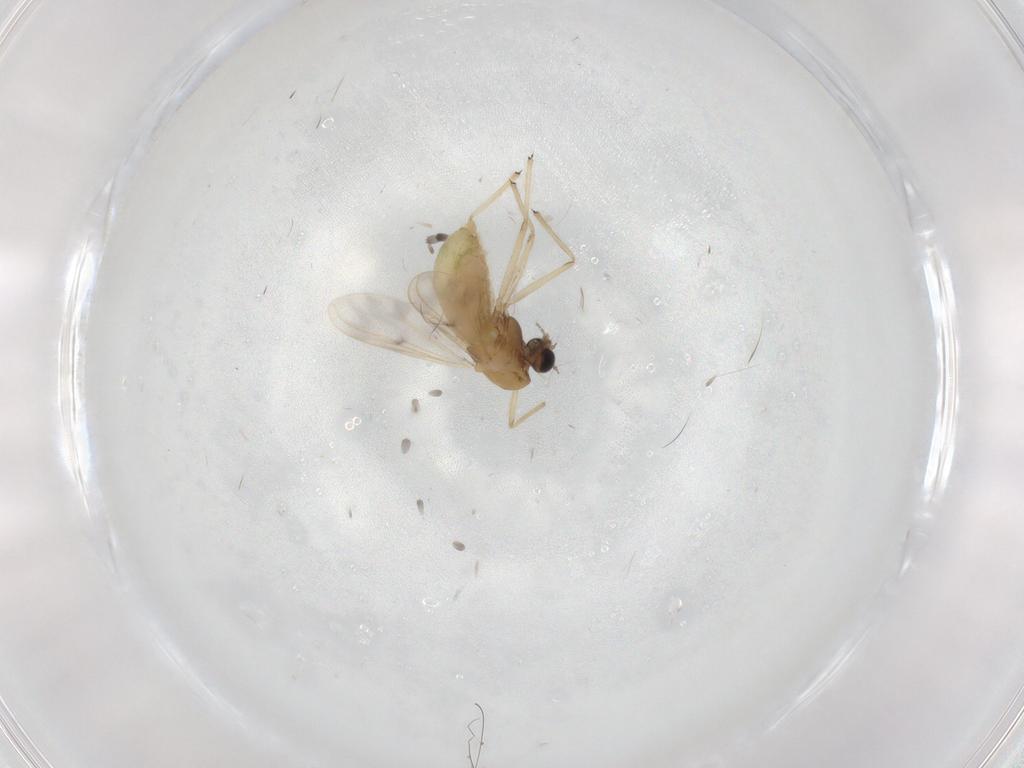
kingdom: Animalia
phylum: Arthropoda
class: Insecta
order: Diptera
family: Chironomidae
